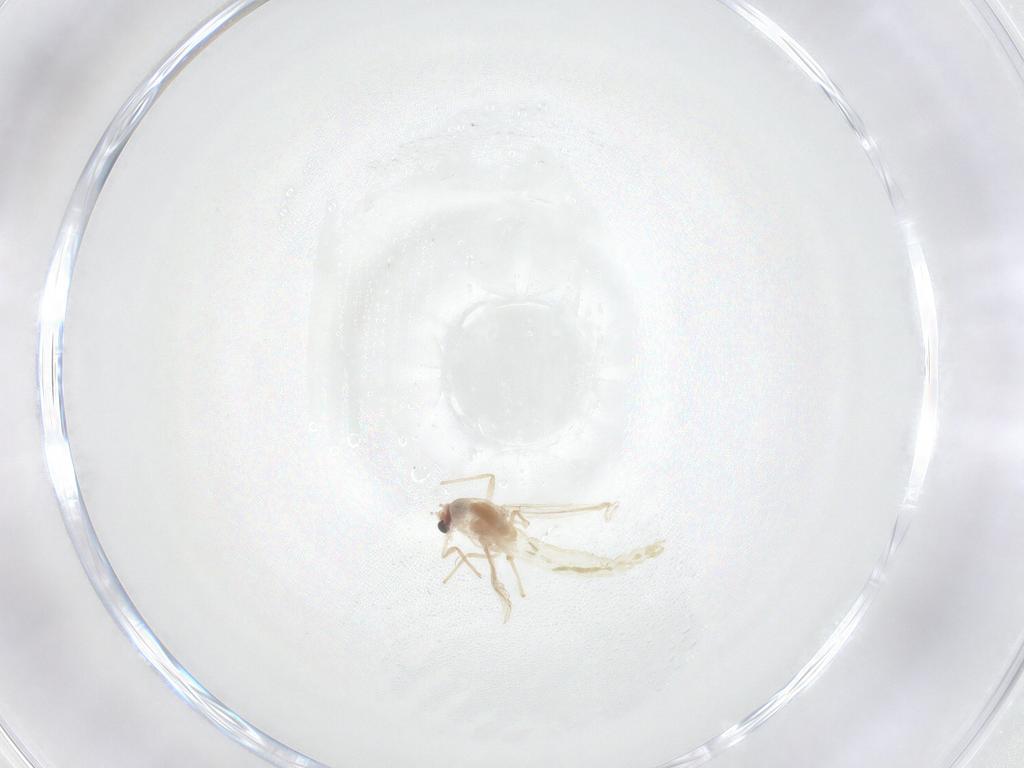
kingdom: Animalia
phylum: Arthropoda
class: Insecta
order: Diptera
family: Chironomidae
